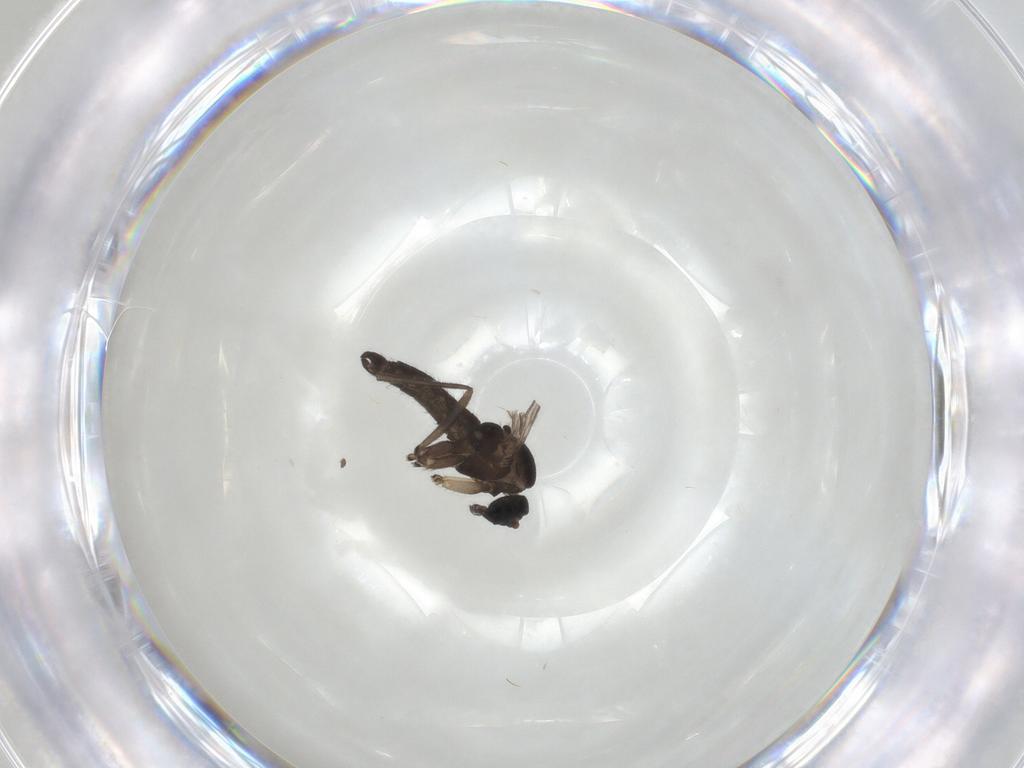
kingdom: Animalia
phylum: Arthropoda
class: Insecta
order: Diptera
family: Sciaridae
